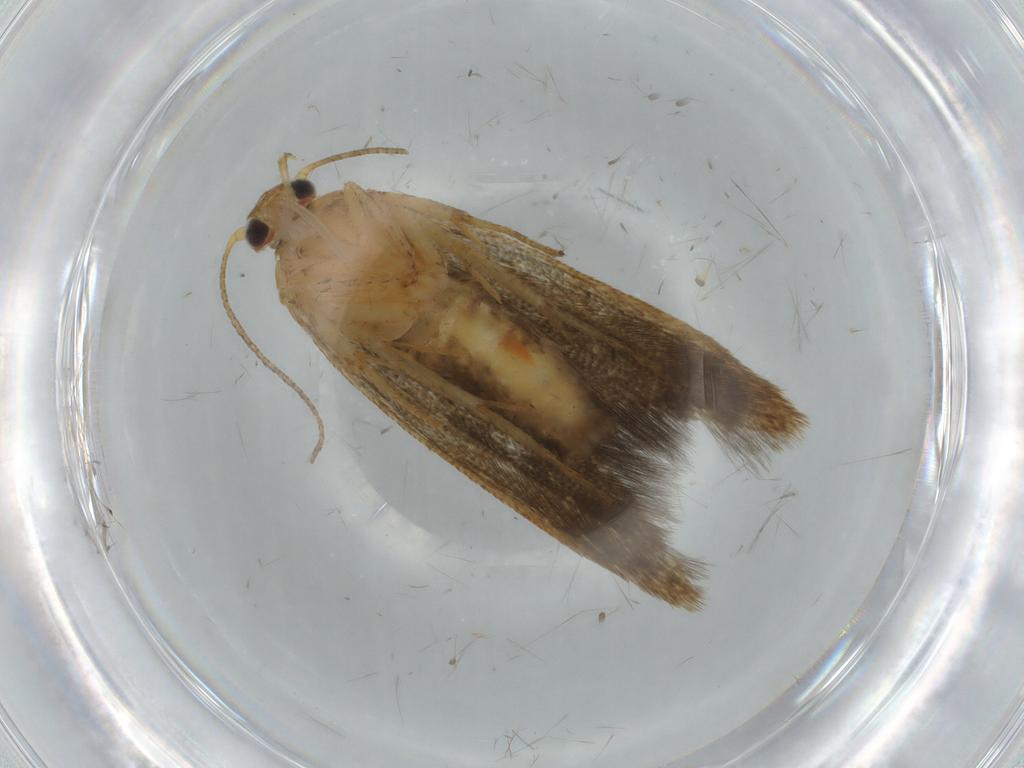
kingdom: Animalia
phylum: Arthropoda
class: Insecta
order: Lepidoptera
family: Blastobasidae
